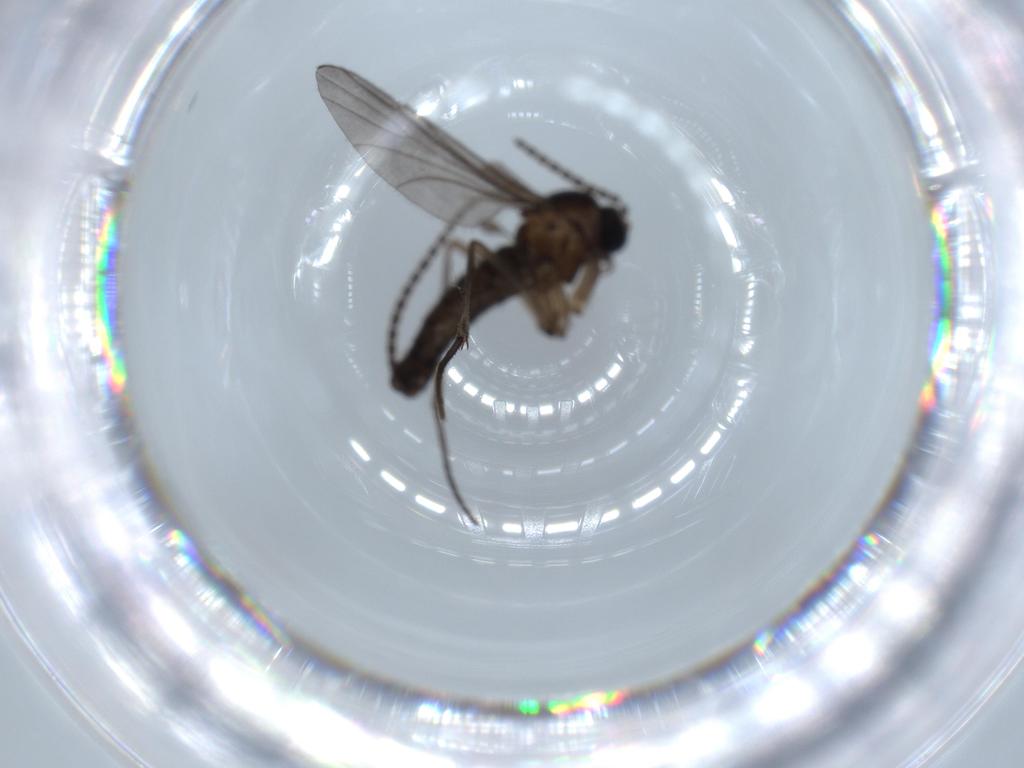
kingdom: Animalia
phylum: Arthropoda
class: Insecta
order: Diptera
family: Sciaridae
